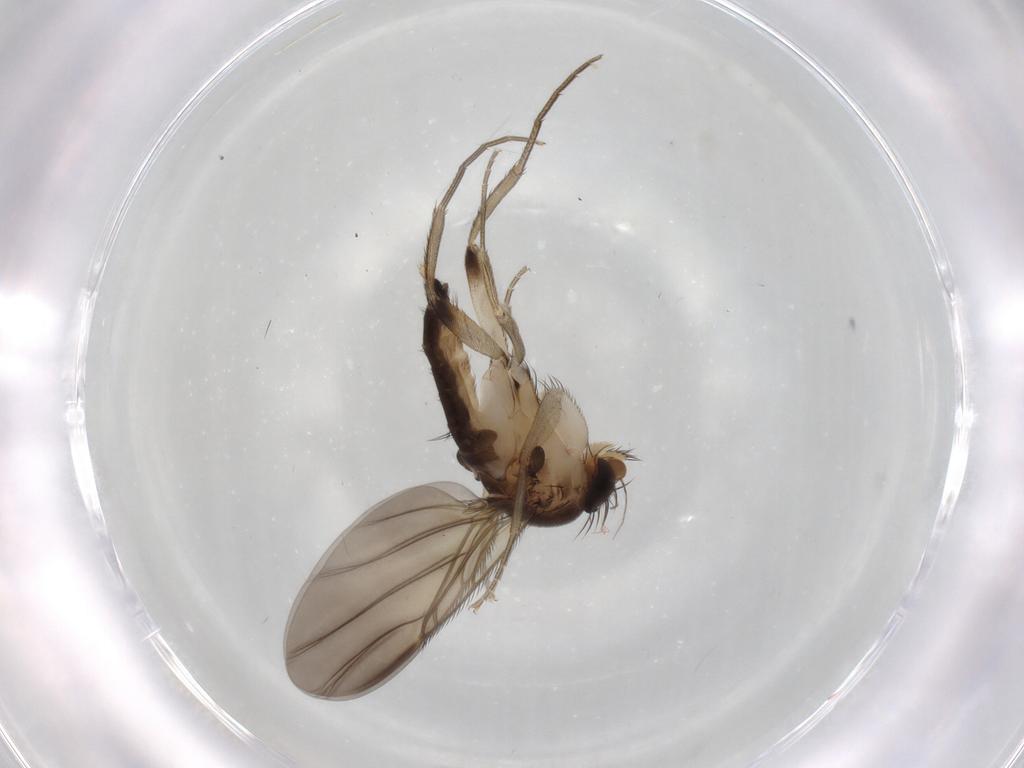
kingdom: Animalia
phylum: Arthropoda
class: Insecta
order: Diptera
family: Phoridae
